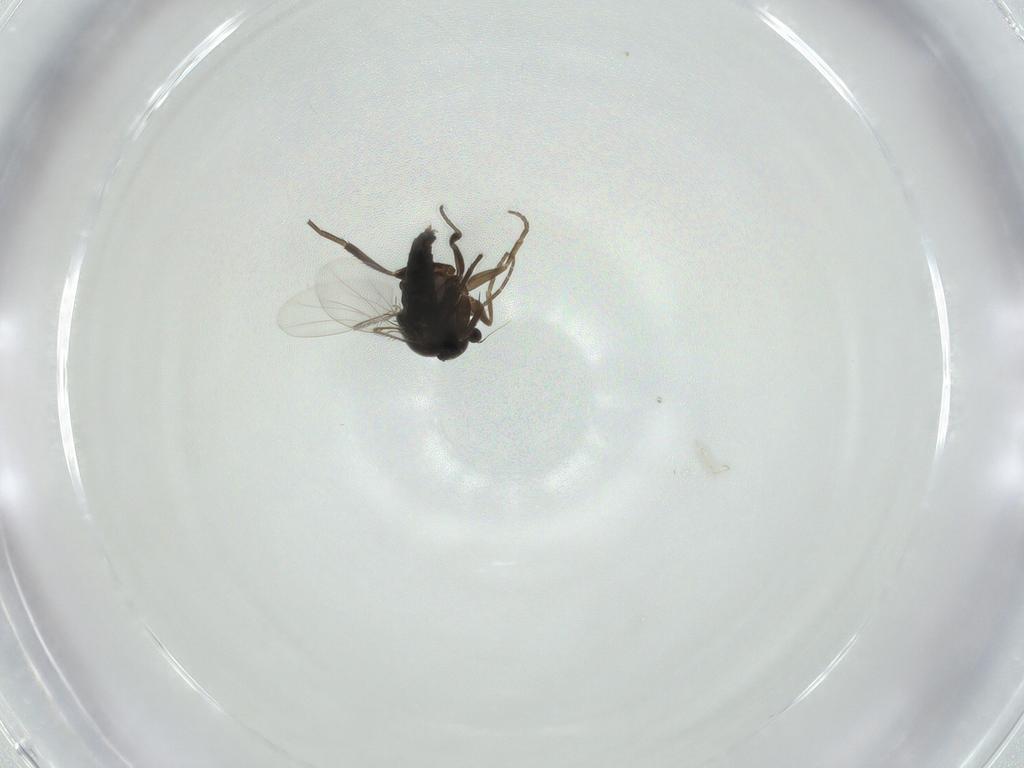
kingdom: Animalia
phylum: Arthropoda
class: Insecta
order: Diptera
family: Phoridae
